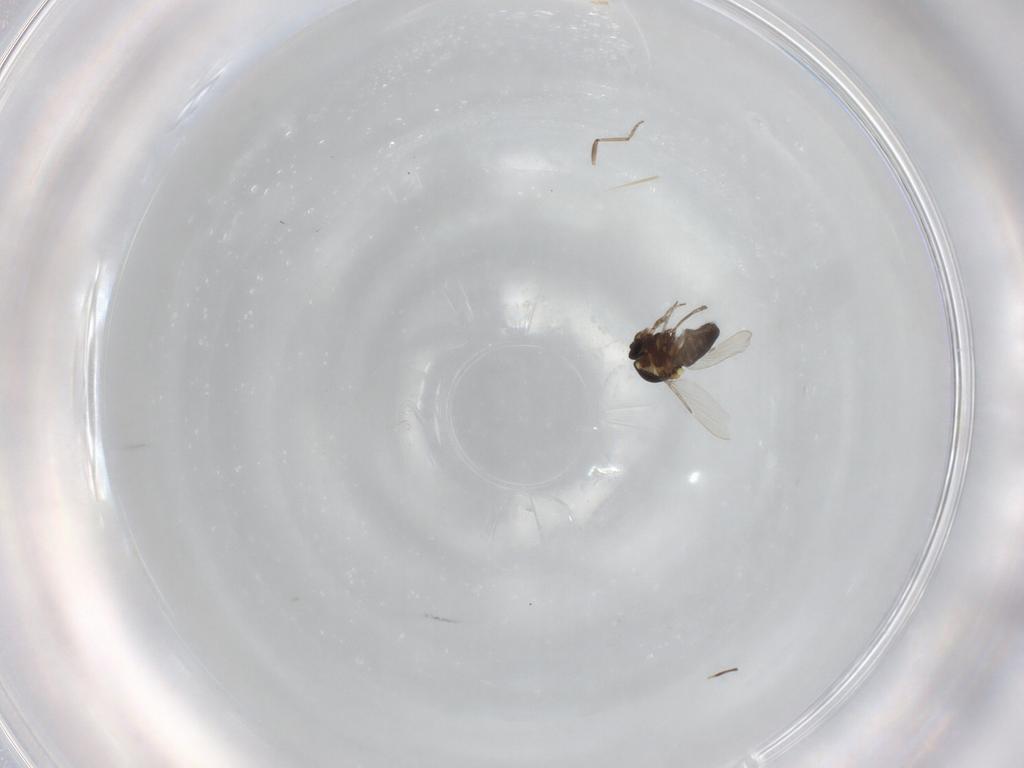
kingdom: Animalia
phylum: Arthropoda
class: Insecta
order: Diptera
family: Ceratopogonidae
